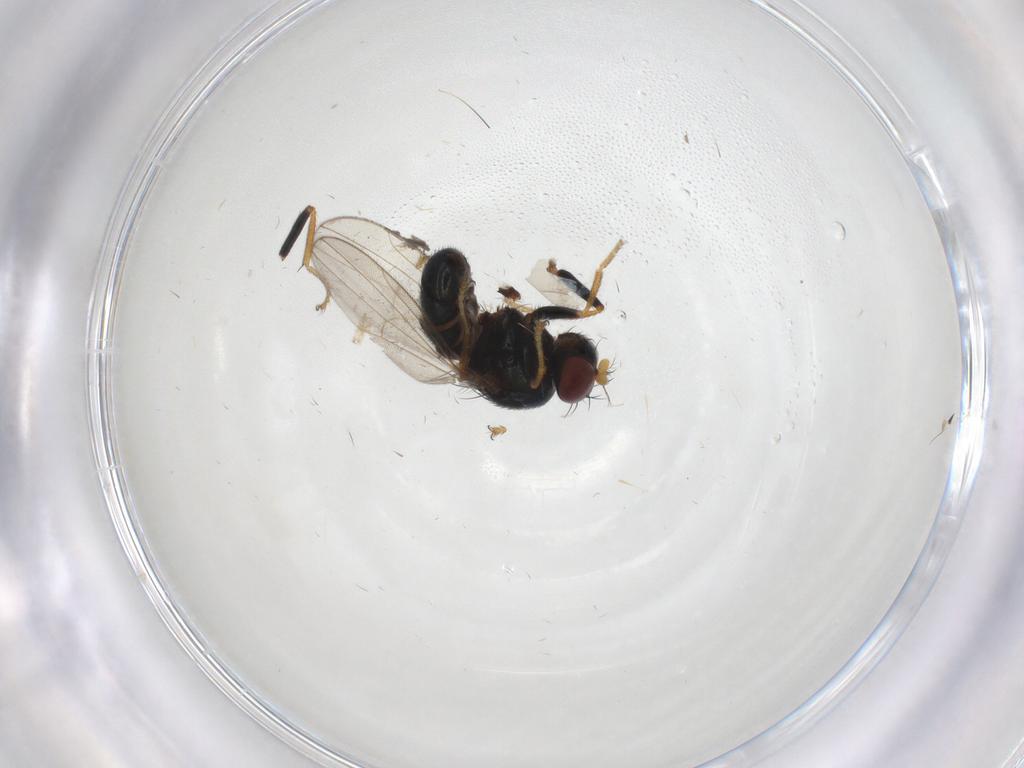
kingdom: Animalia
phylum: Arthropoda
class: Insecta
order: Diptera
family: Ephydridae
